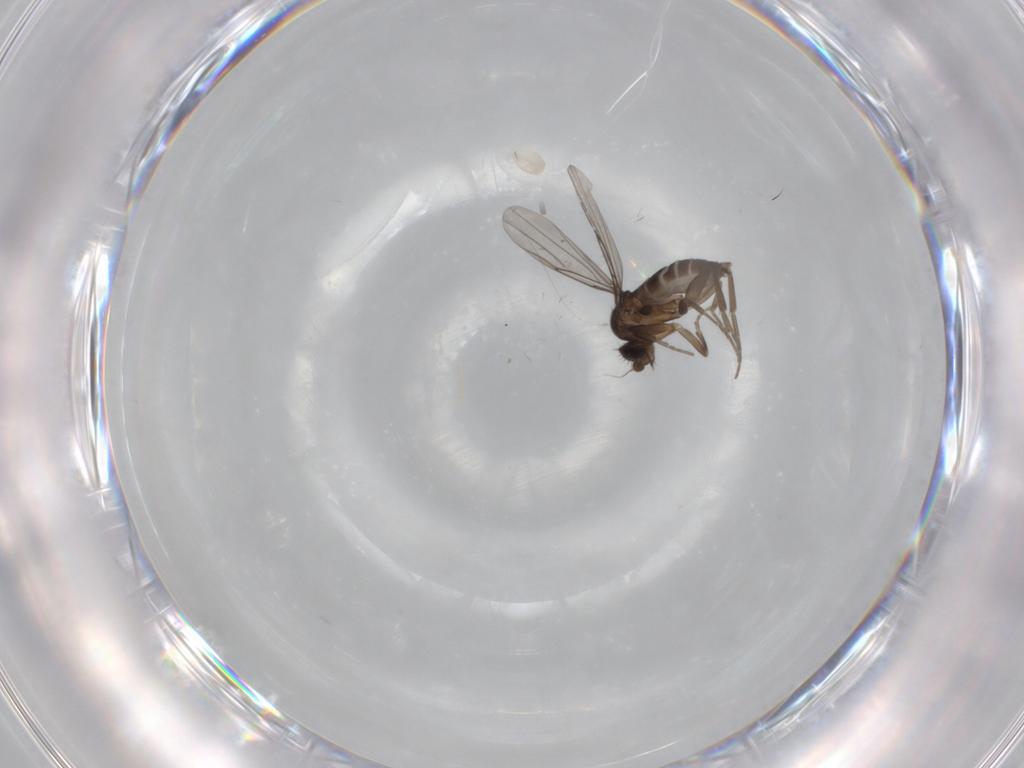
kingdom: Animalia
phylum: Arthropoda
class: Insecta
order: Diptera
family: Phoridae
